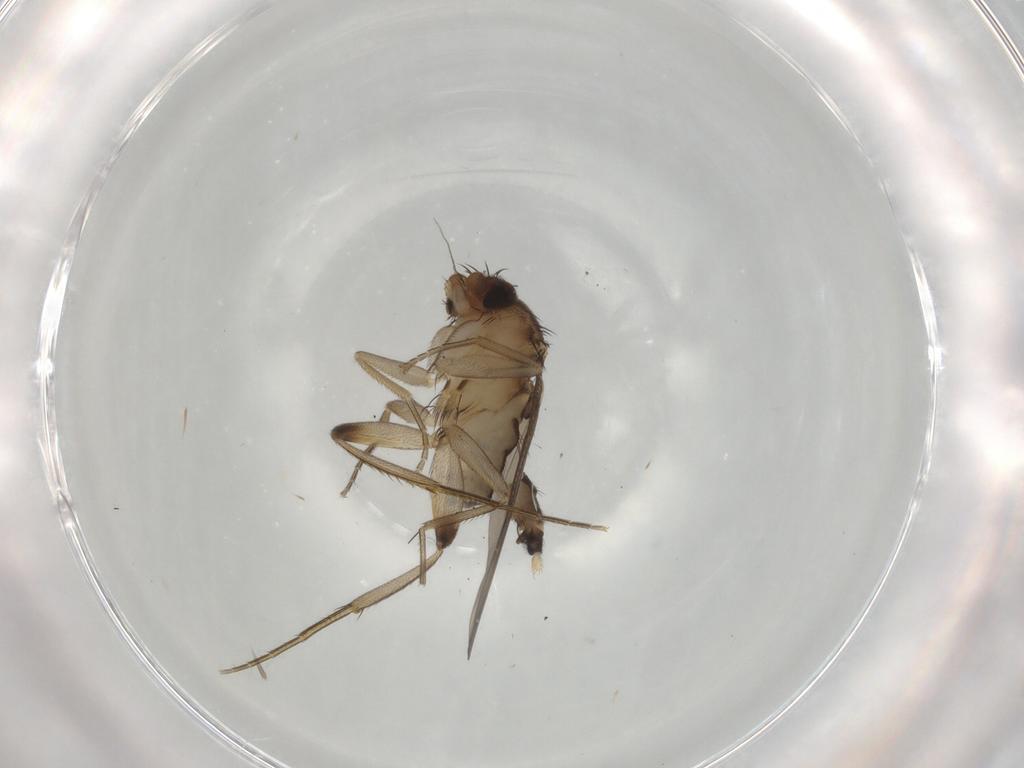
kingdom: Animalia
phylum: Arthropoda
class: Insecta
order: Diptera
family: Phoridae
